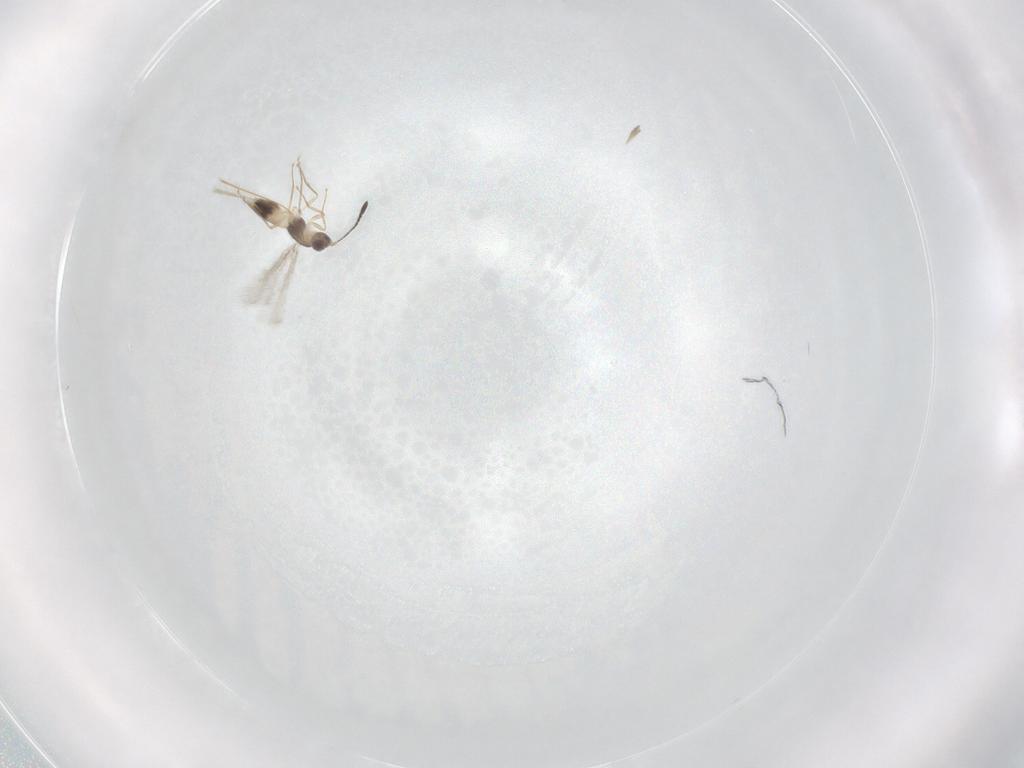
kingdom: Animalia
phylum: Arthropoda
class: Insecta
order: Hymenoptera
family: Mymaridae
